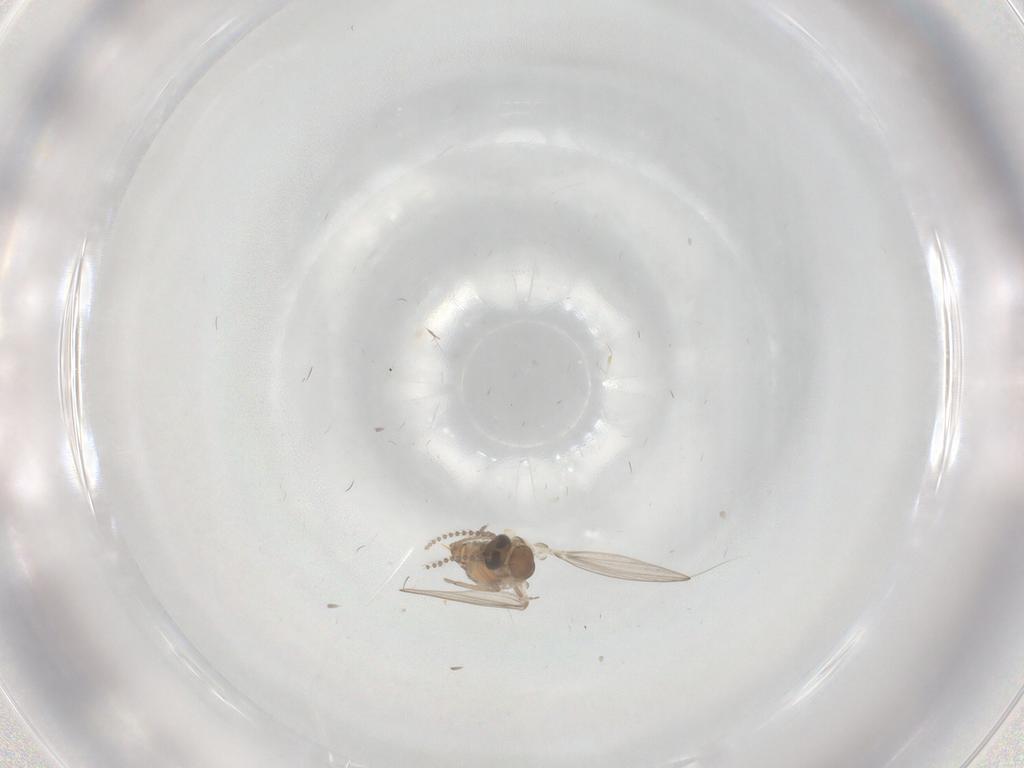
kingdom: Animalia
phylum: Arthropoda
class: Insecta
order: Diptera
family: Psychodidae
